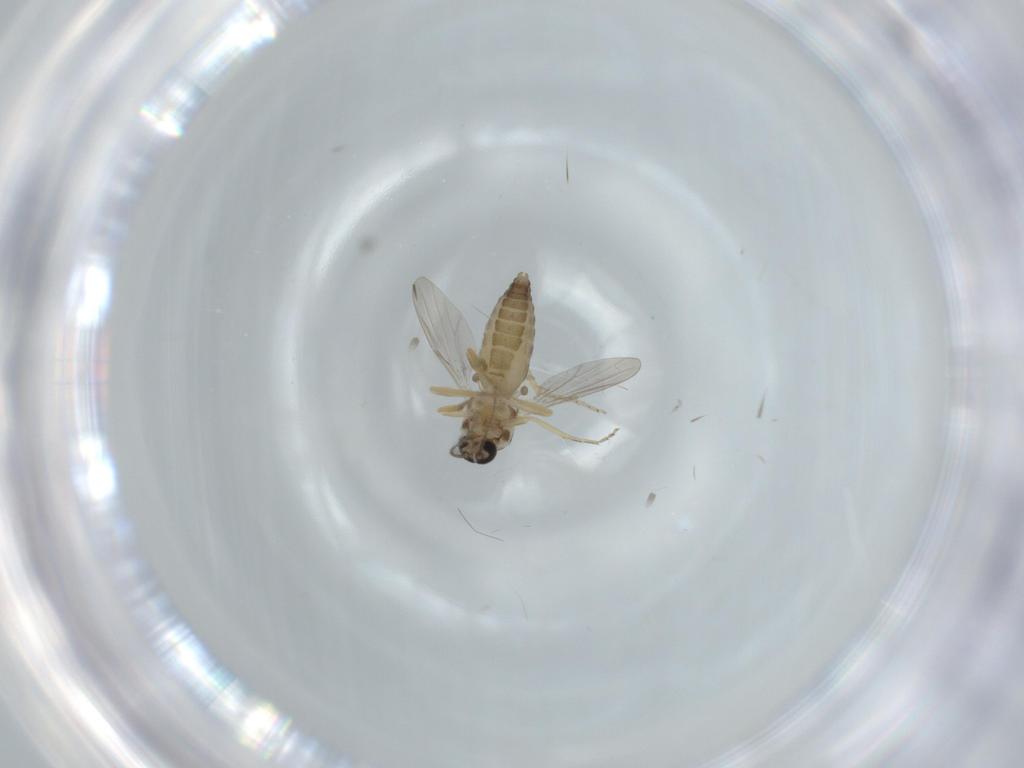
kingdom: Animalia
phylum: Arthropoda
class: Insecta
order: Diptera
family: Ceratopogonidae
